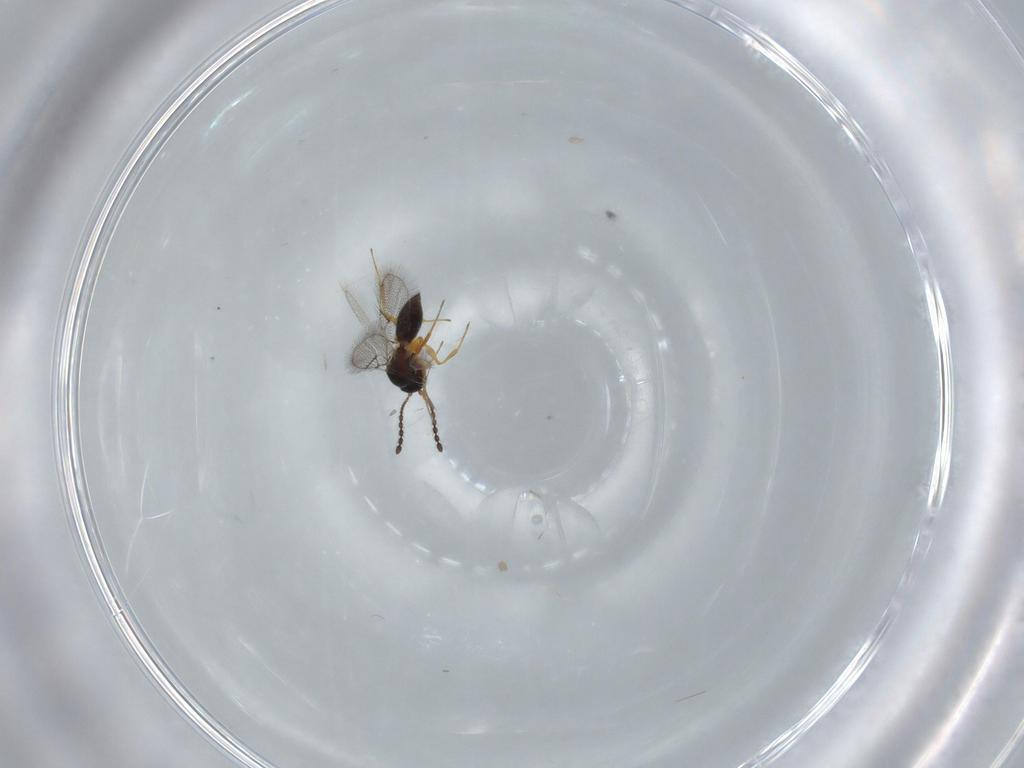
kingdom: Animalia
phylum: Arthropoda
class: Insecta
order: Hymenoptera
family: Figitidae
